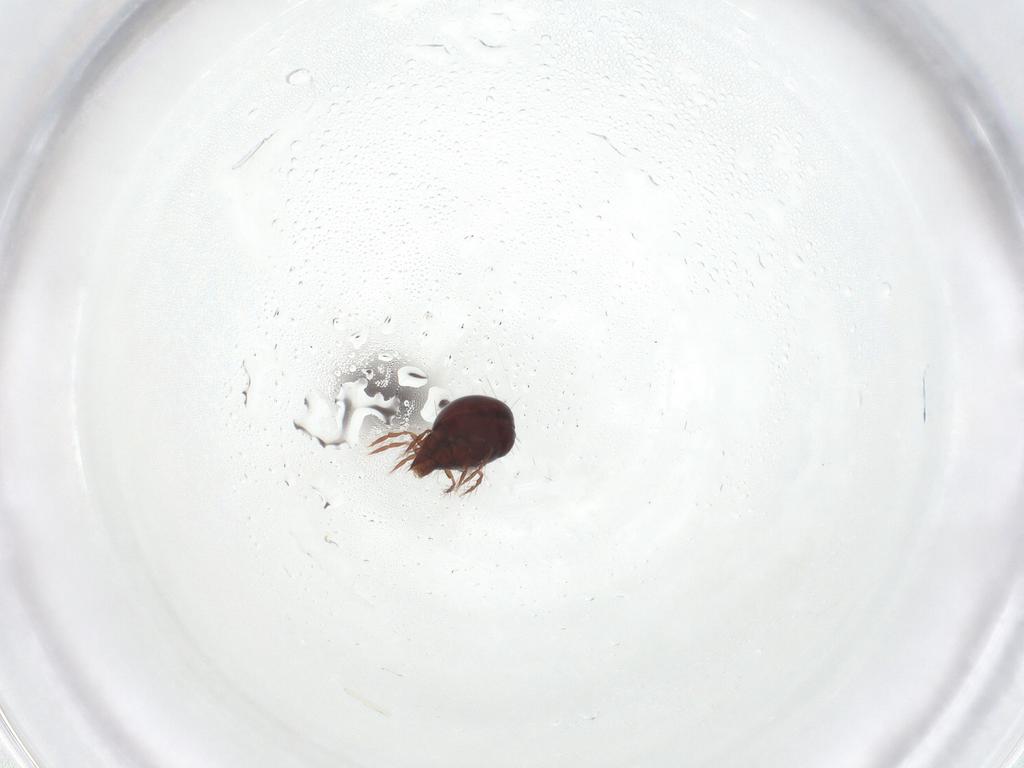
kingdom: Animalia
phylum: Arthropoda
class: Arachnida
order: Sarcoptiformes
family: Ceratoppiidae
